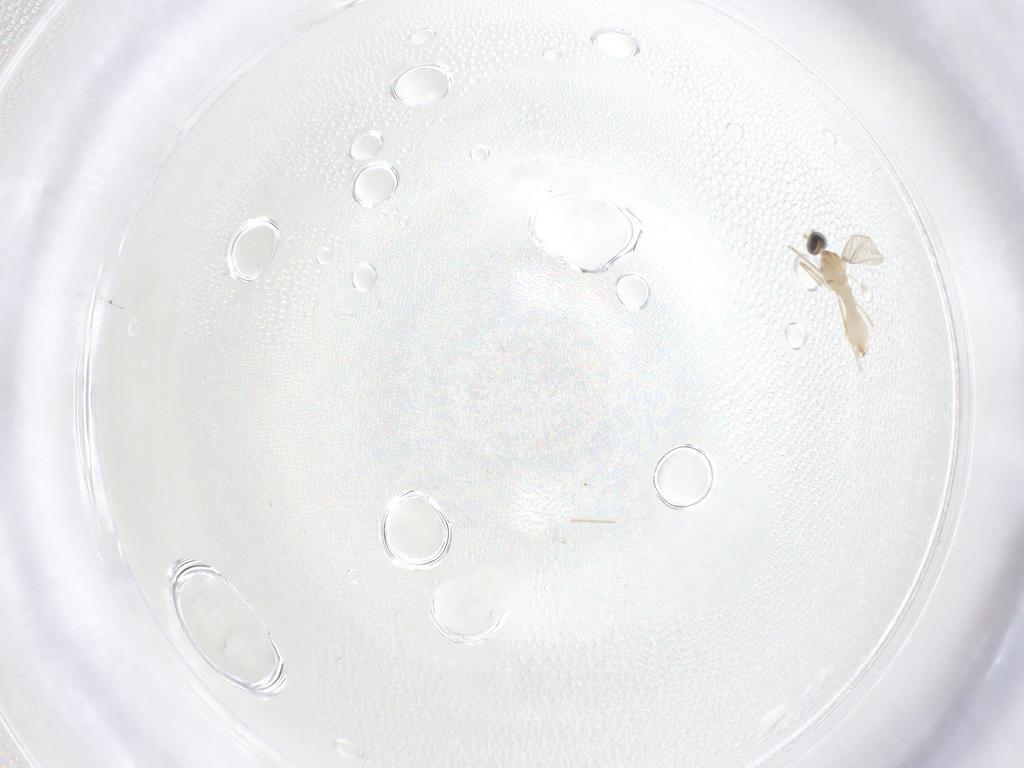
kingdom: Animalia
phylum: Arthropoda
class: Insecta
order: Diptera
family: Cecidomyiidae
